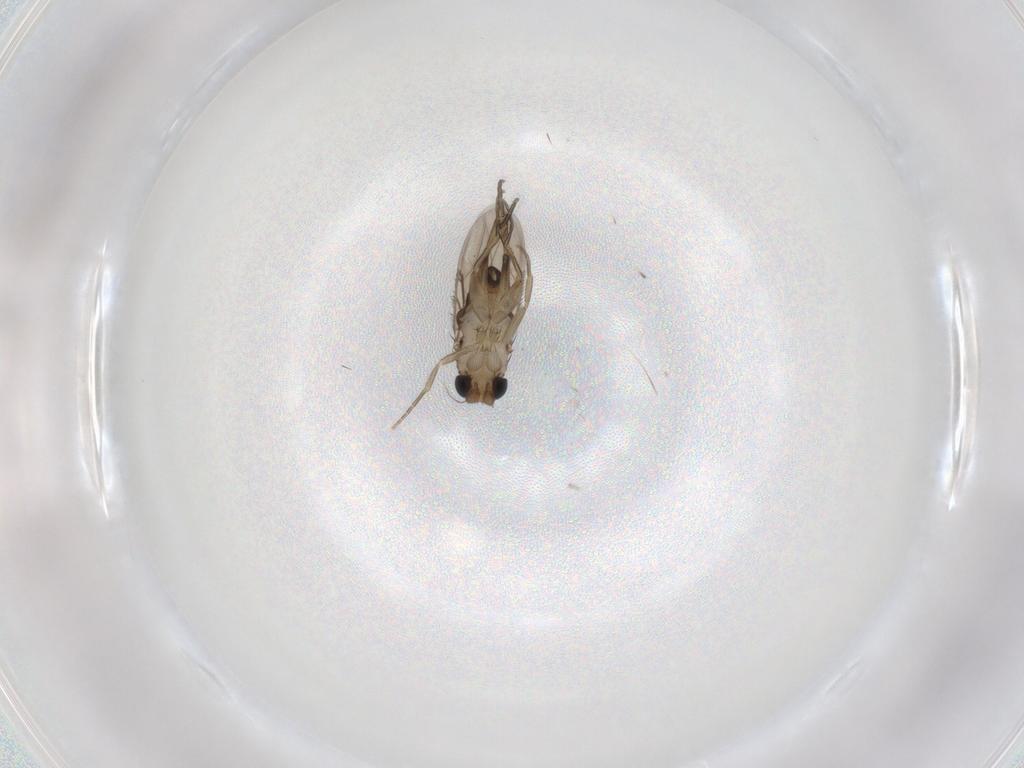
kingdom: Animalia
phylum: Arthropoda
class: Insecta
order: Diptera
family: Phoridae
